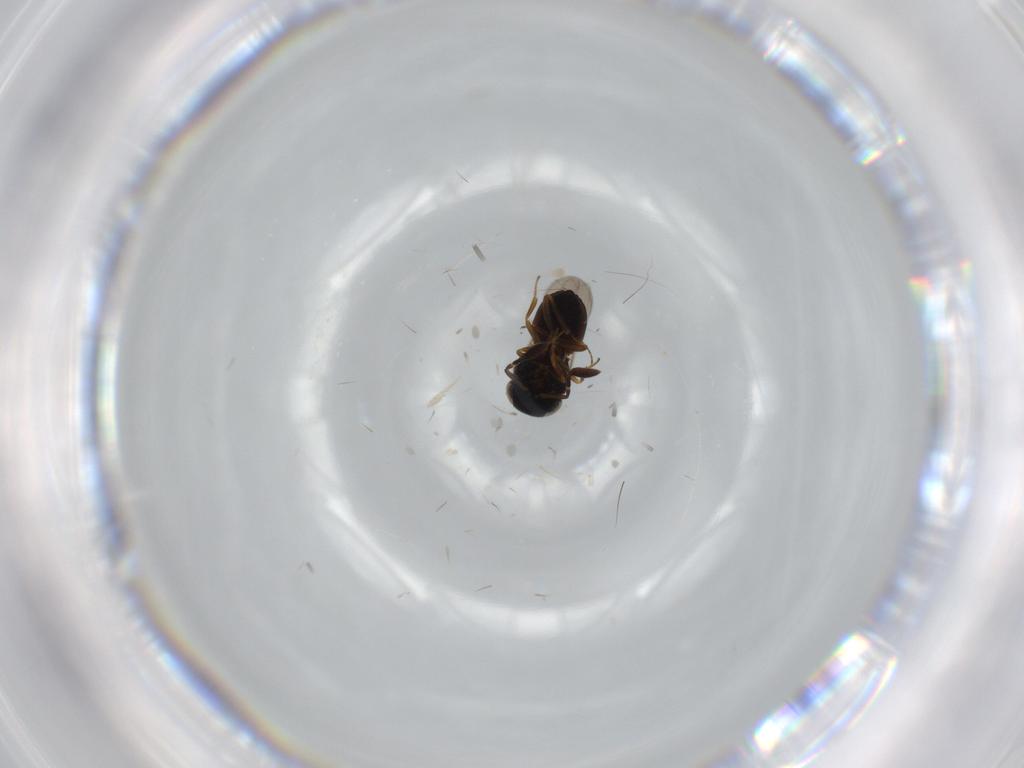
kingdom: Animalia
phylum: Arthropoda
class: Insecta
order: Hymenoptera
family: Scelionidae
